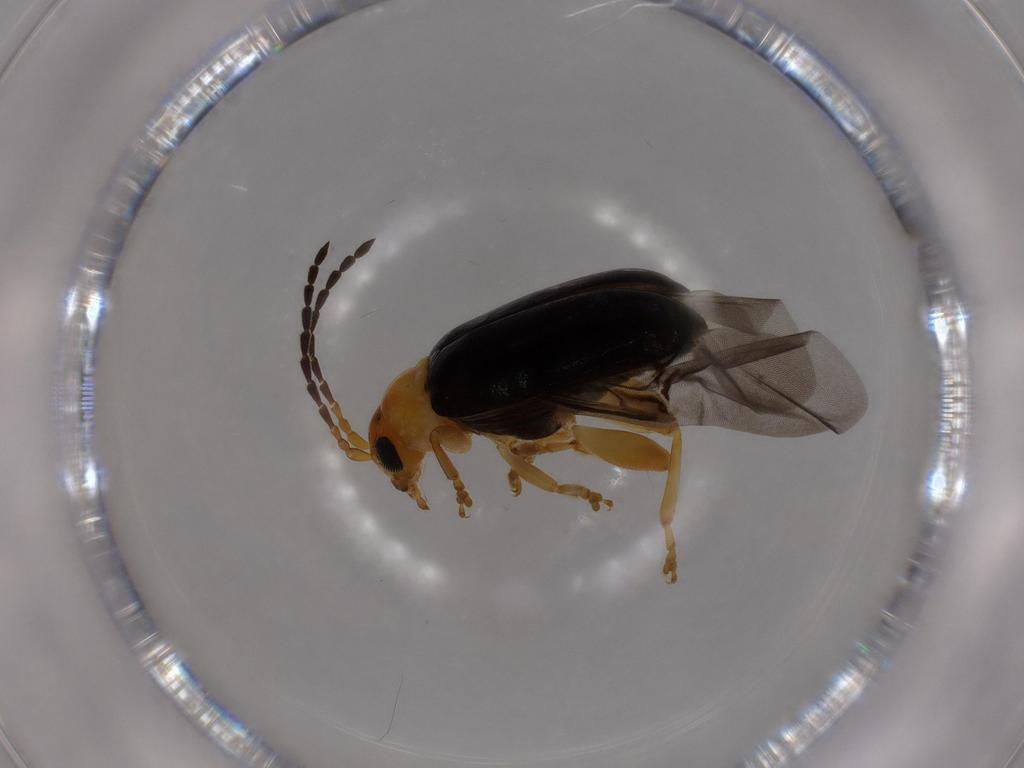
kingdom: Animalia
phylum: Arthropoda
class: Insecta
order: Coleoptera
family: Chrysomelidae
